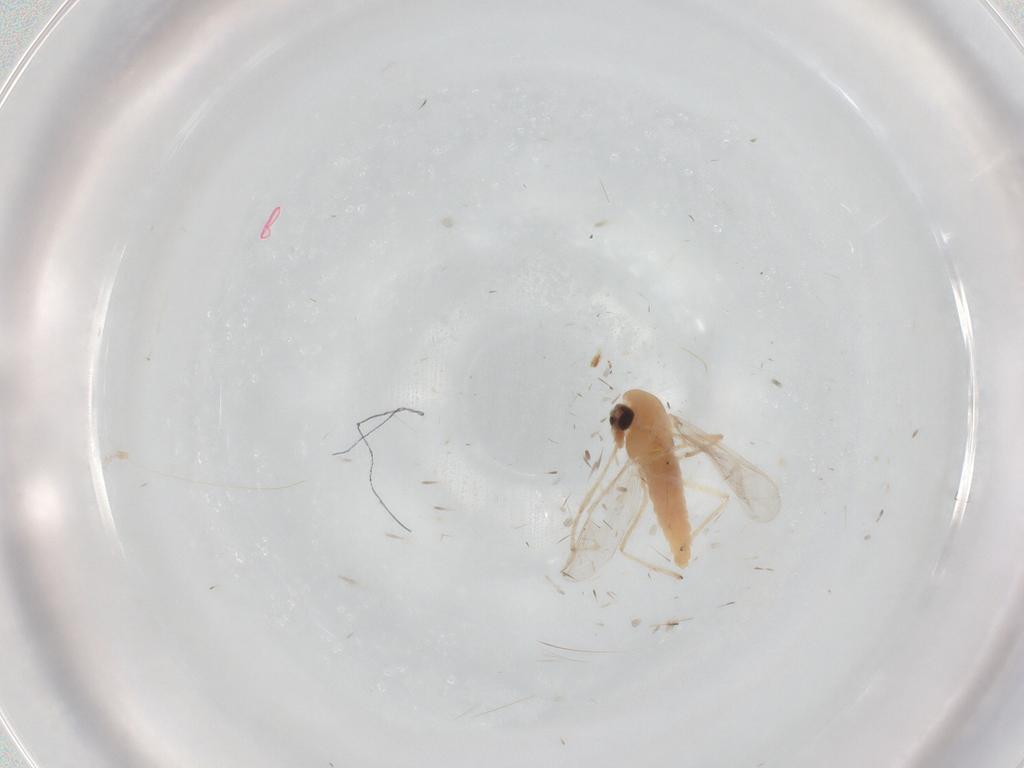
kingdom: Animalia
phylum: Arthropoda
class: Insecta
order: Diptera
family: Chironomidae
